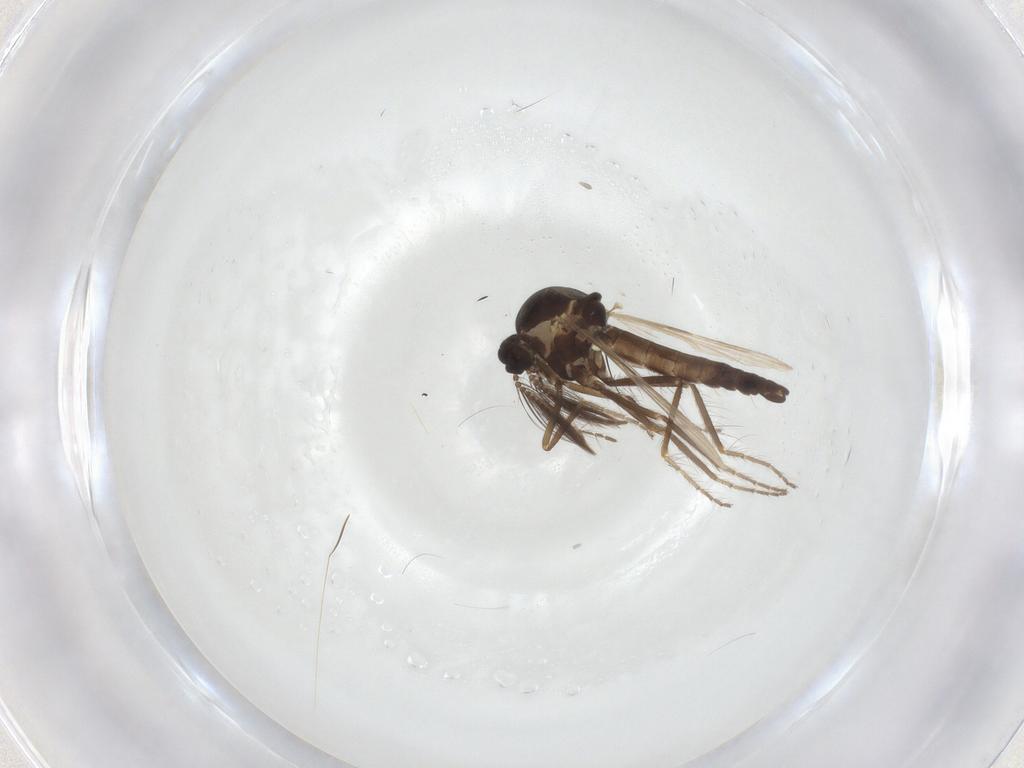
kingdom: Animalia
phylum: Arthropoda
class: Insecta
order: Diptera
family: Ceratopogonidae
